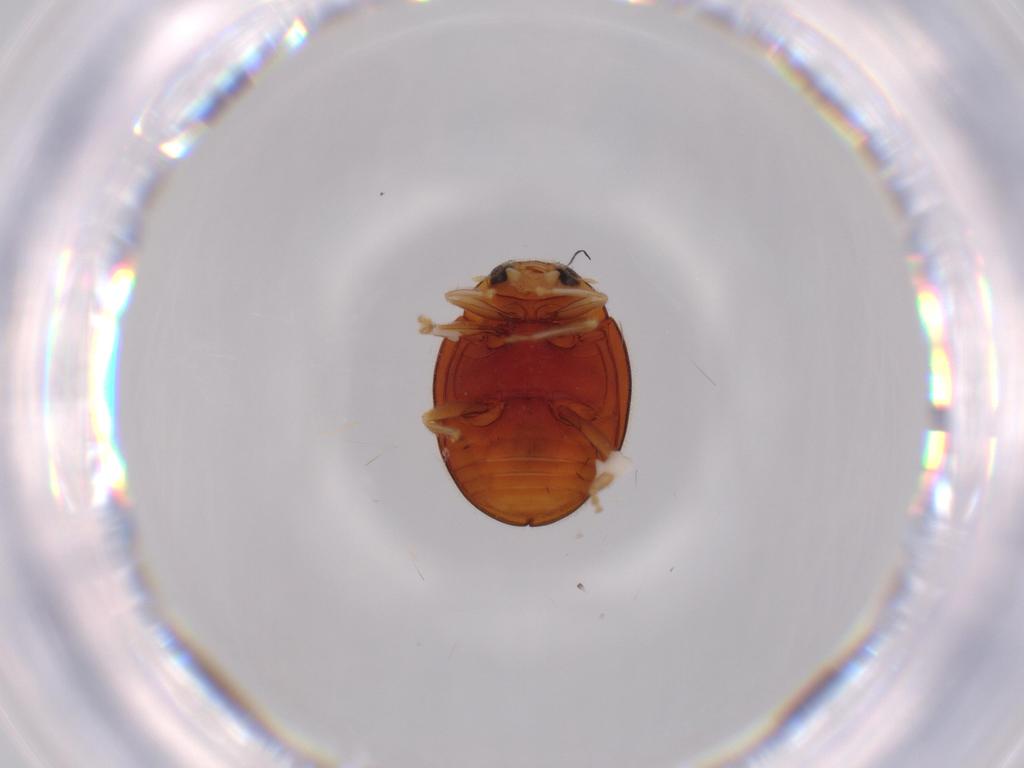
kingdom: Animalia
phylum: Arthropoda
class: Insecta
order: Coleoptera
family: Coccinellidae
